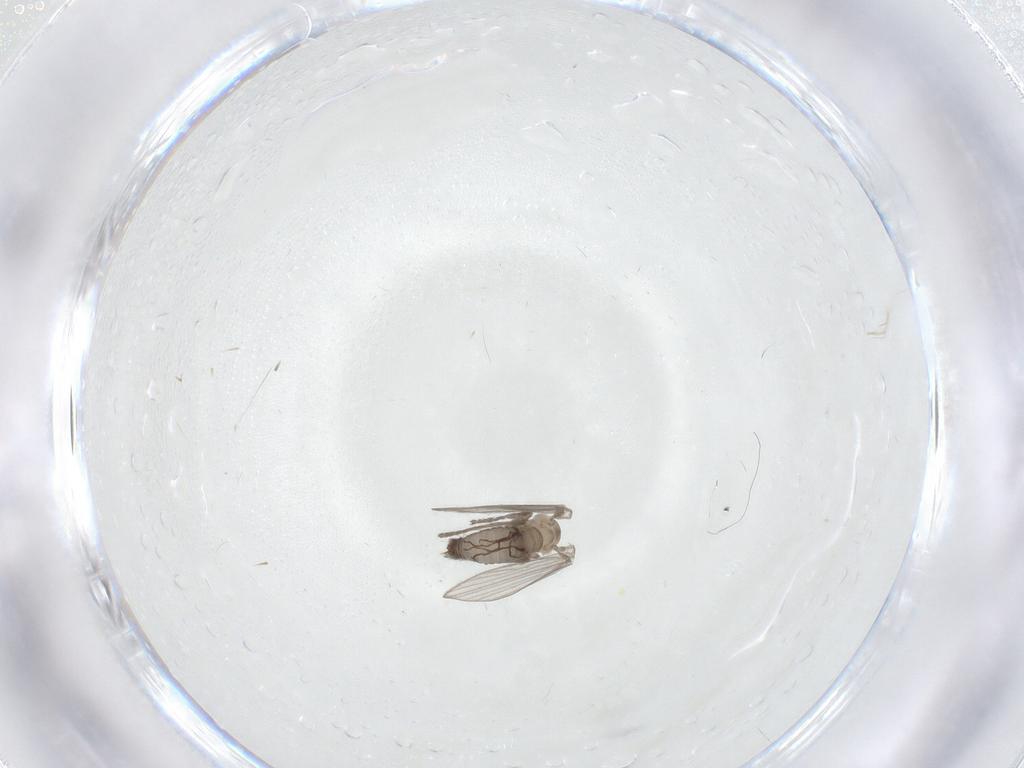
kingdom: Animalia
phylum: Arthropoda
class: Insecta
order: Diptera
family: Psychodidae
